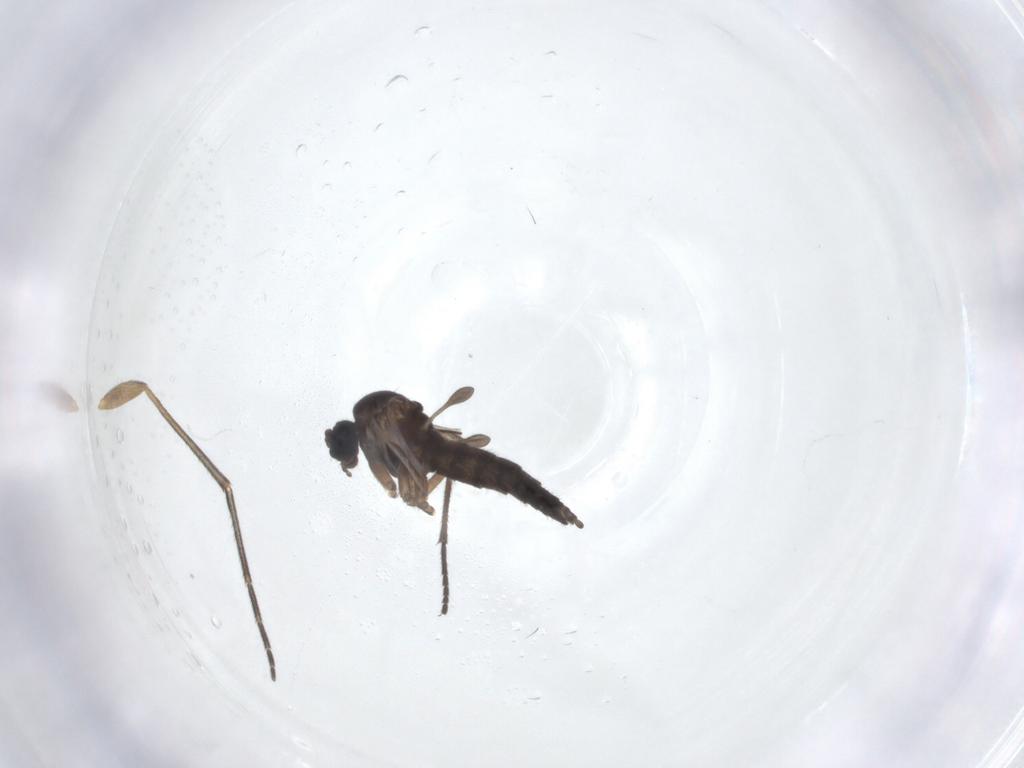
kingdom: Animalia
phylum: Arthropoda
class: Insecta
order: Diptera
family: Keroplatidae
